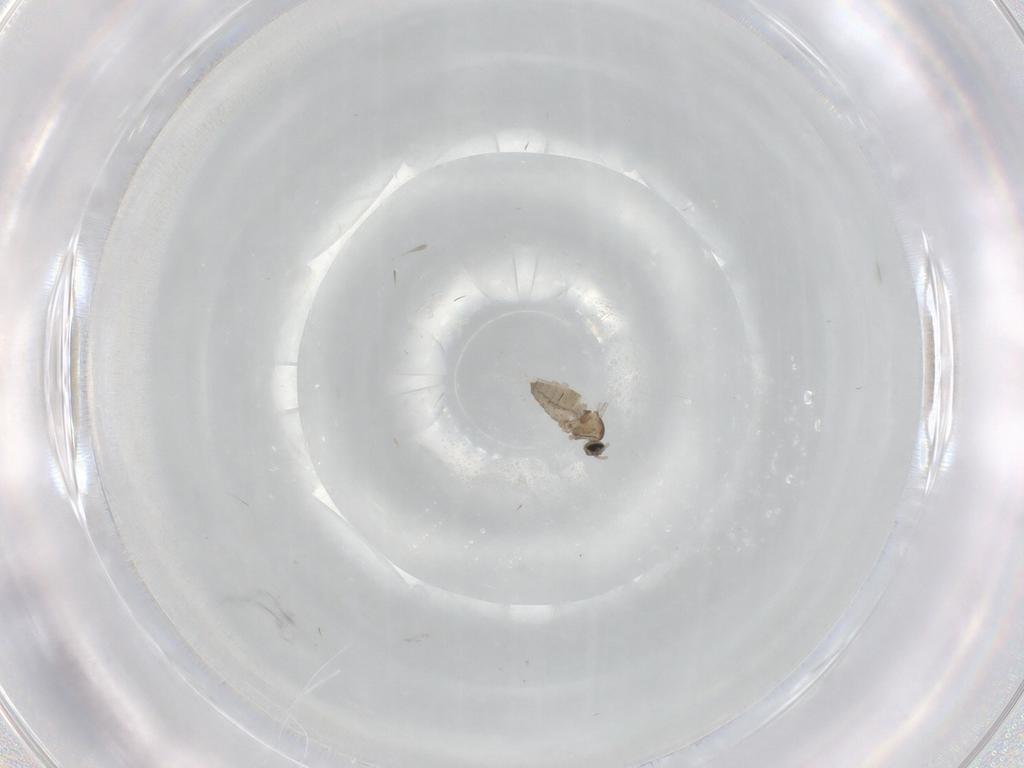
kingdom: Animalia
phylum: Arthropoda
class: Insecta
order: Diptera
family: Cecidomyiidae
